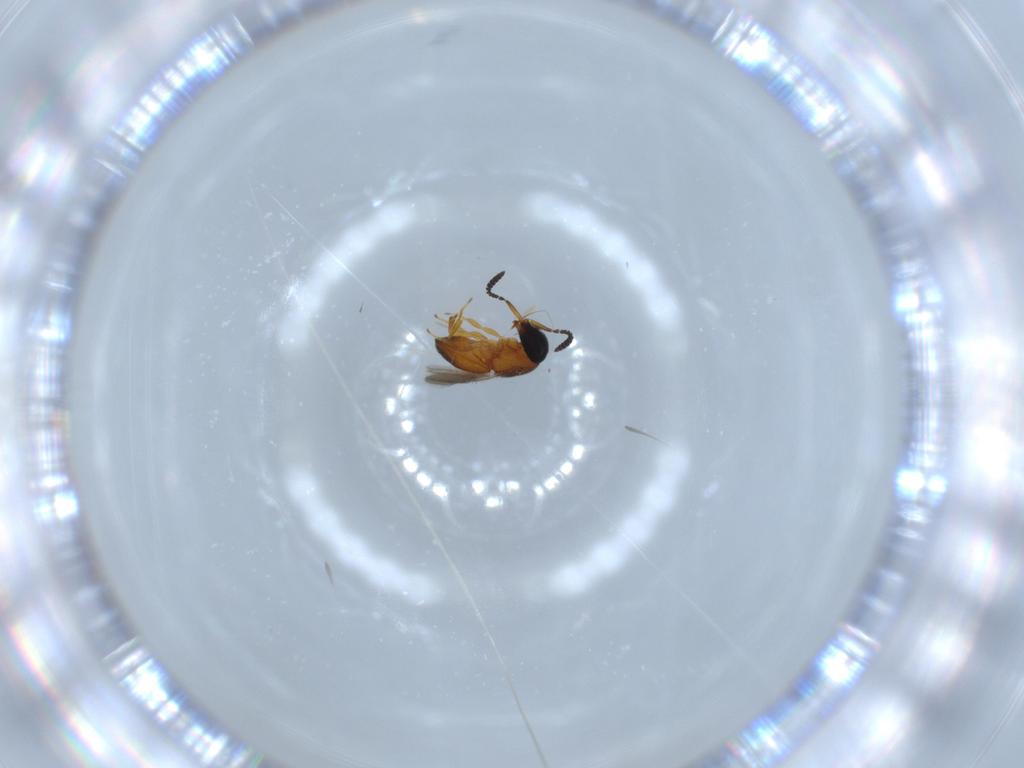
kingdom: Animalia
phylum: Arthropoda
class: Insecta
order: Hymenoptera
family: Scelionidae
